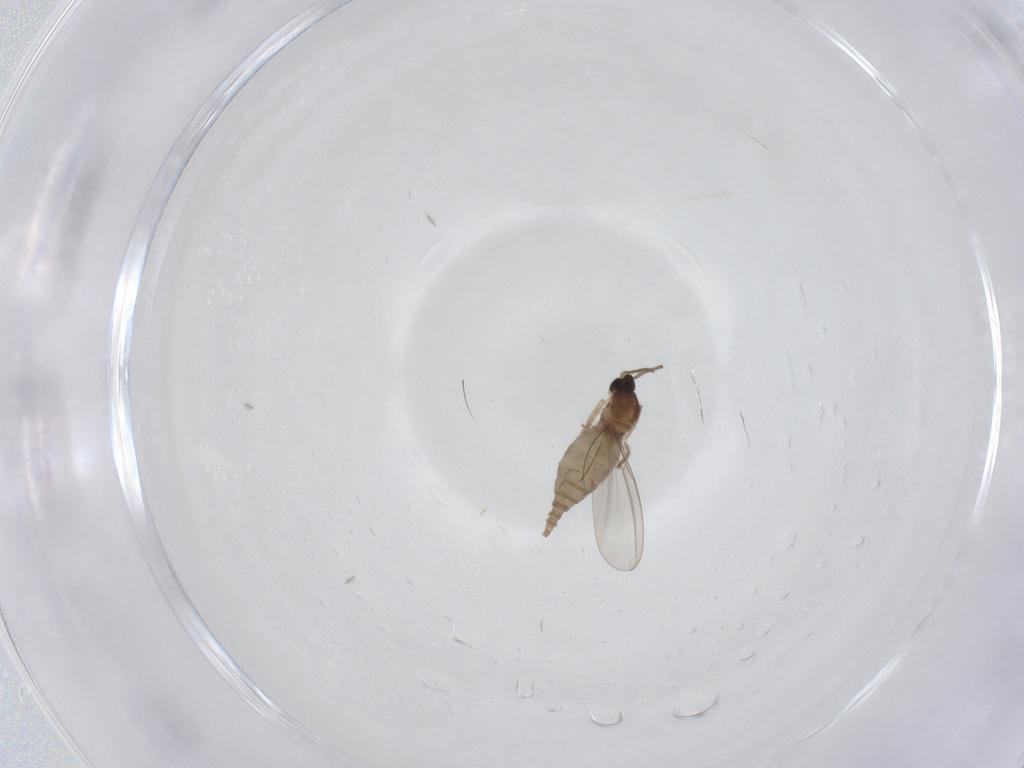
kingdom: Animalia
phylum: Arthropoda
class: Insecta
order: Diptera
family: Cecidomyiidae
